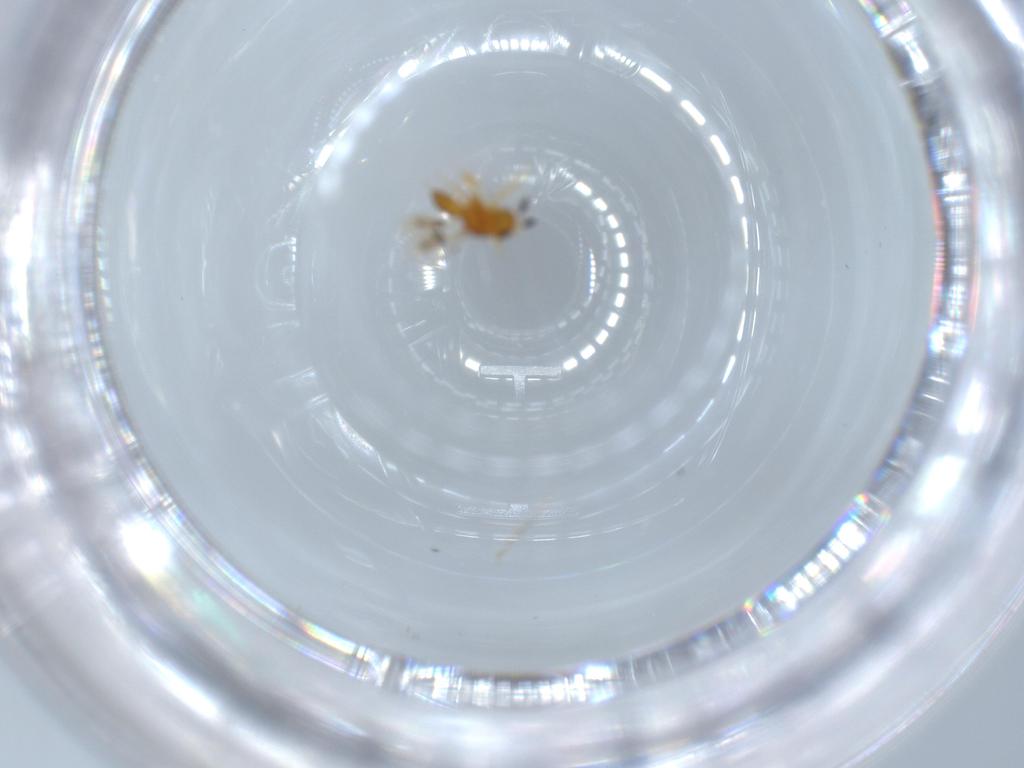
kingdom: Animalia
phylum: Arthropoda
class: Insecta
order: Hymenoptera
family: Scelionidae
